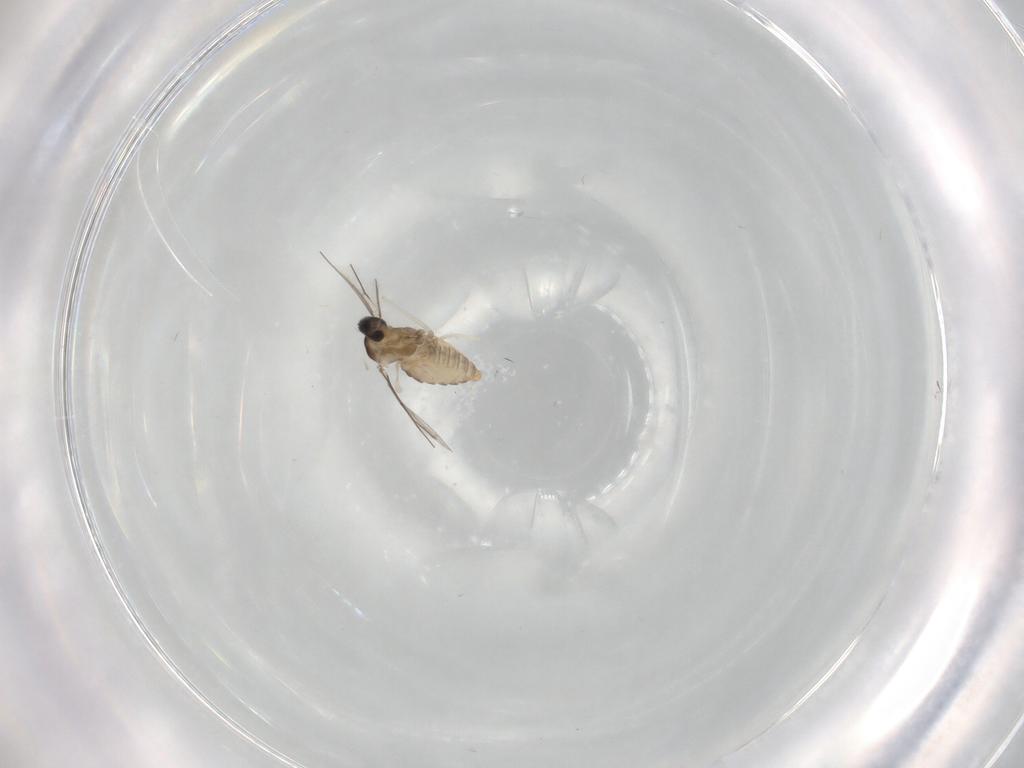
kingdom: Animalia
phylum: Arthropoda
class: Insecta
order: Diptera
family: Cecidomyiidae
